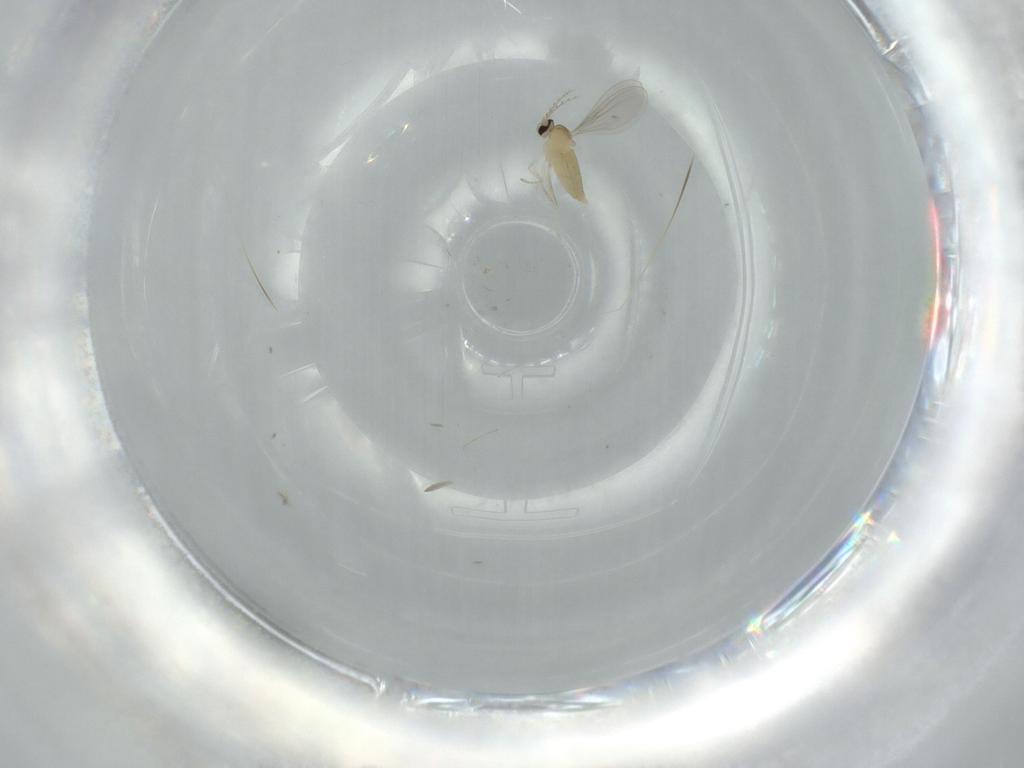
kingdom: Animalia
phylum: Arthropoda
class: Insecta
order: Diptera
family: Cecidomyiidae
